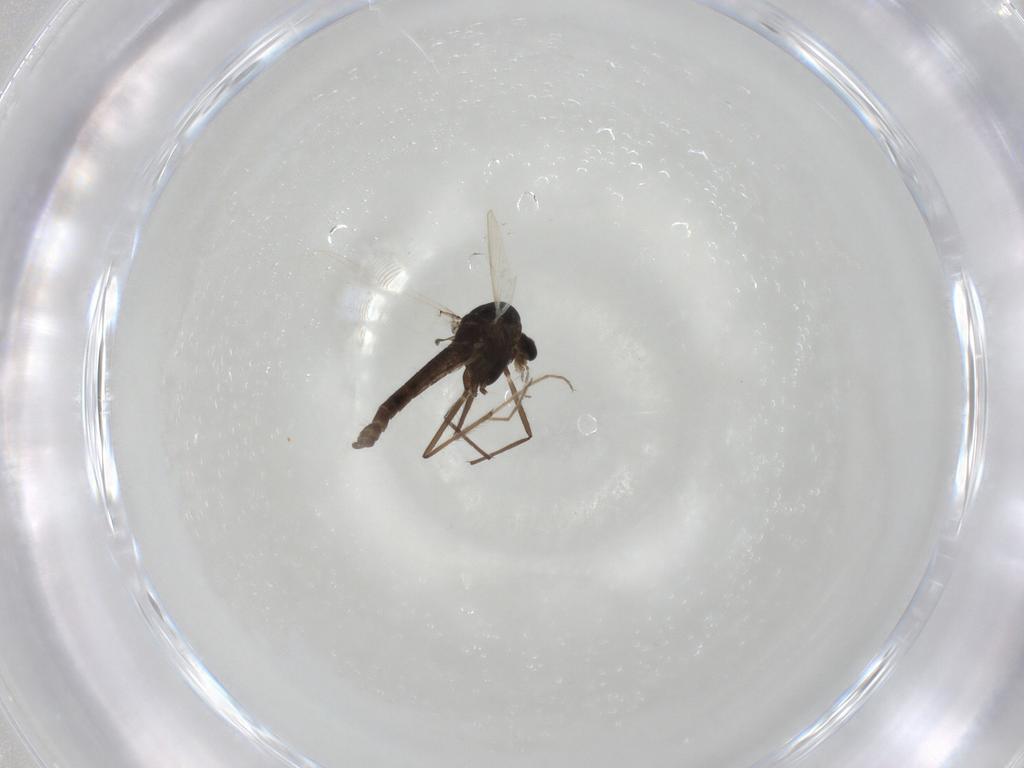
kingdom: Animalia
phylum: Arthropoda
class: Insecta
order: Diptera
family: Chironomidae
